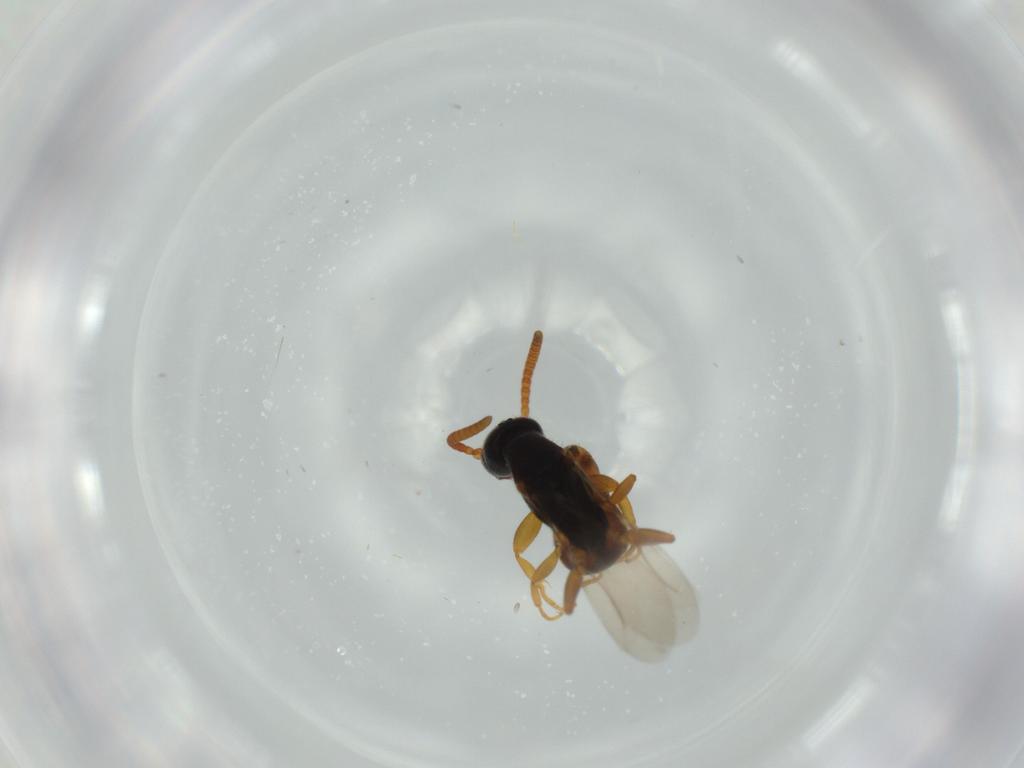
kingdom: Animalia
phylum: Arthropoda
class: Insecta
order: Hymenoptera
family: Bethylidae
